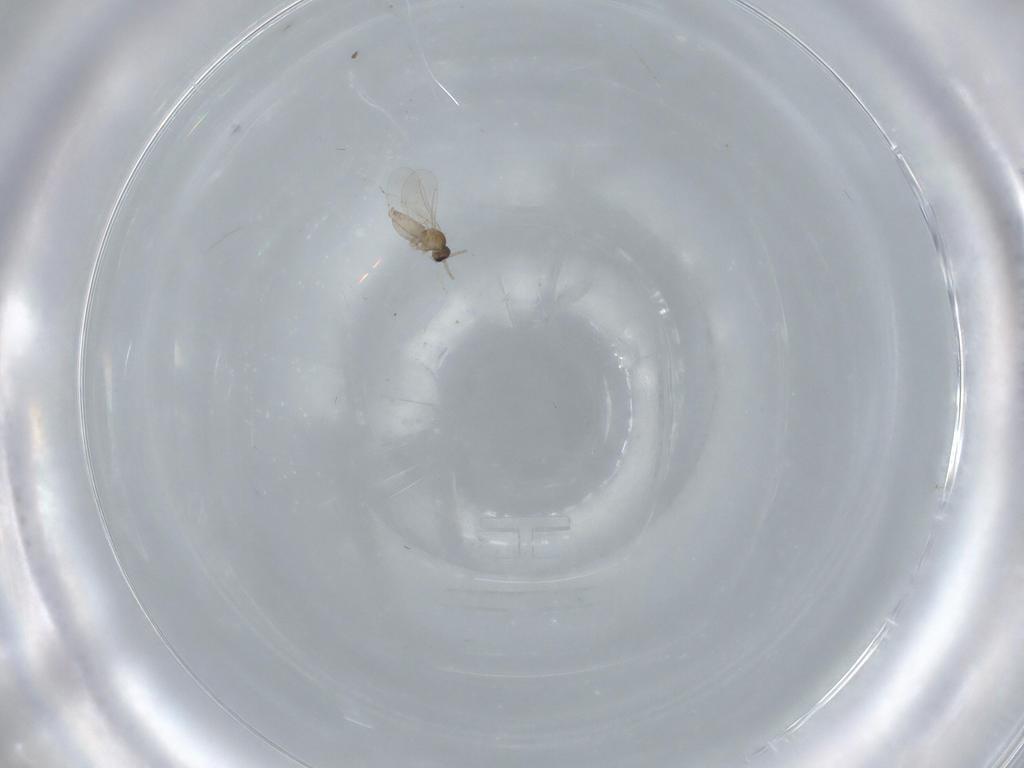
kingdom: Animalia
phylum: Arthropoda
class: Insecta
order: Diptera
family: Cecidomyiidae
